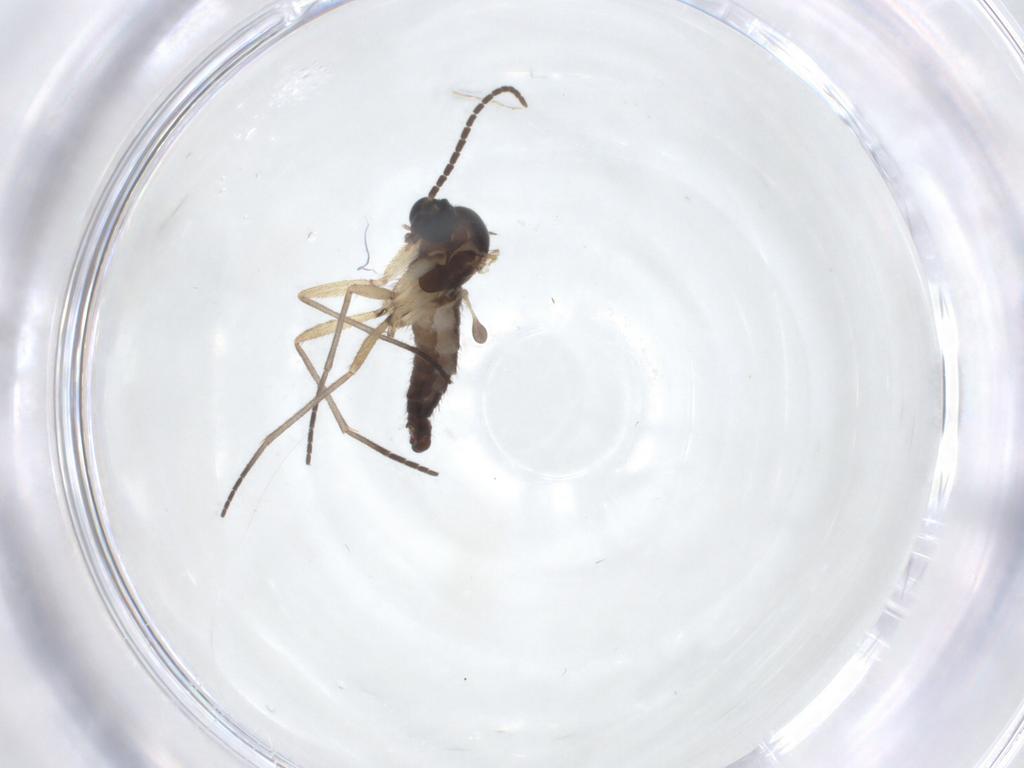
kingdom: Animalia
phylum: Arthropoda
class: Insecta
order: Diptera
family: Sciaridae
